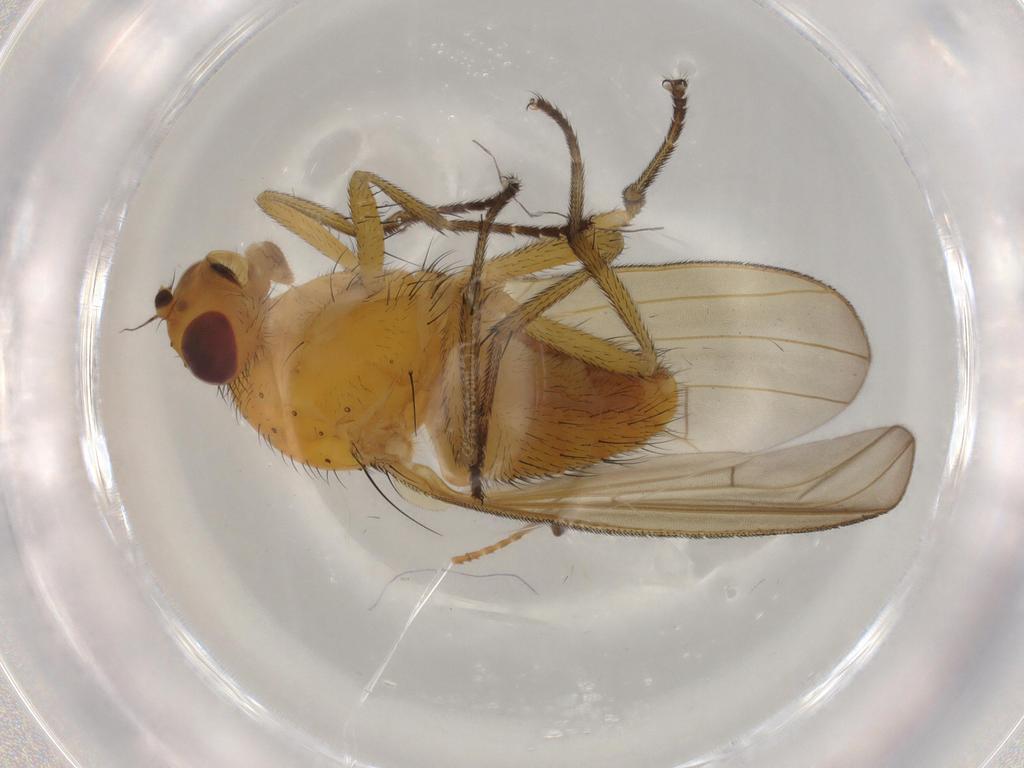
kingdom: Animalia
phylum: Arthropoda
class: Insecta
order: Diptera
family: Lauxaniidae
